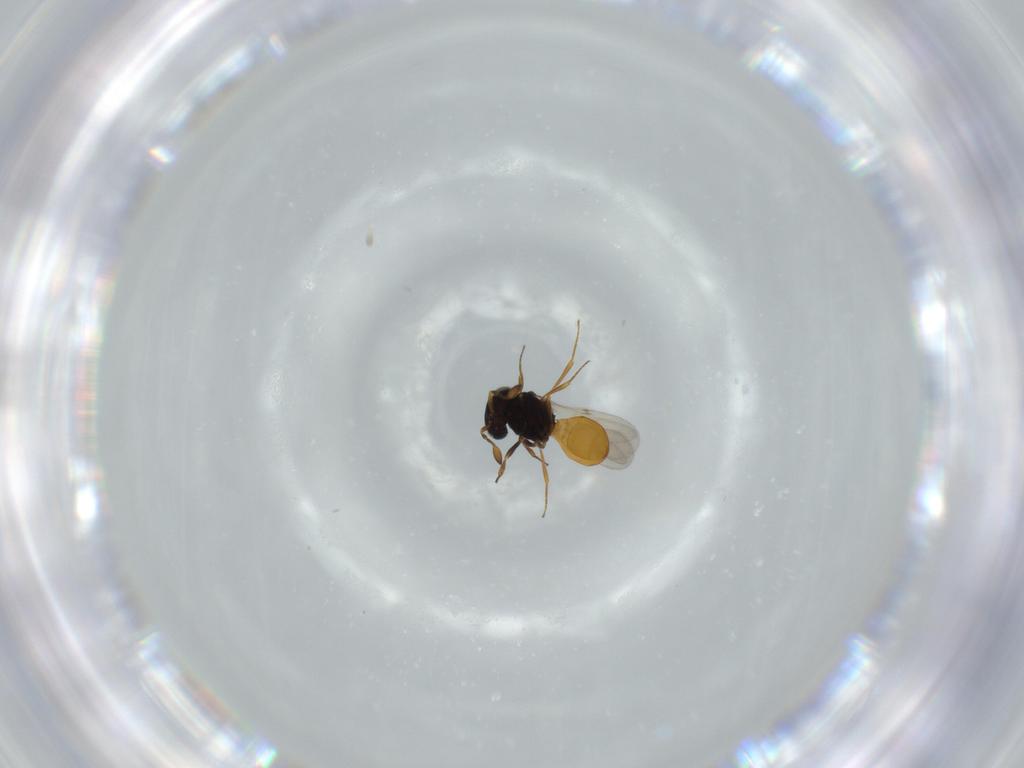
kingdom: Animalia
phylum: Arthropoda
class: Insecta
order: Hymenoptera
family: Scelionidae
